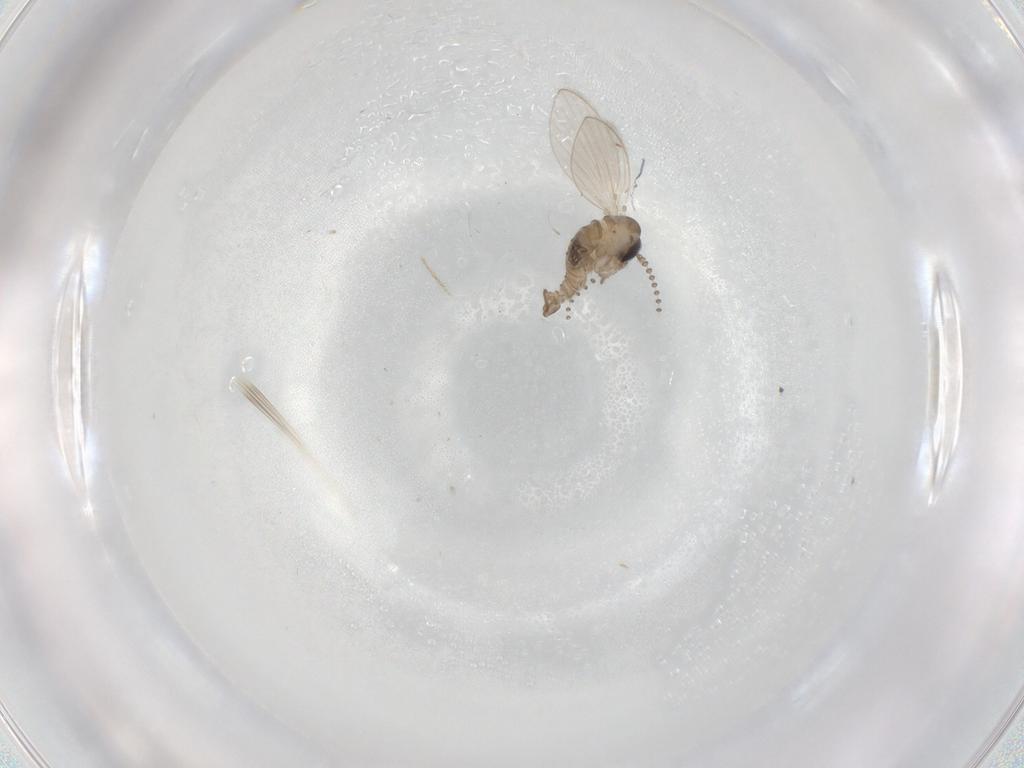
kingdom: Animalia
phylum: Arthropoda
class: Insecta
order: Diptera
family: Psychodidae
